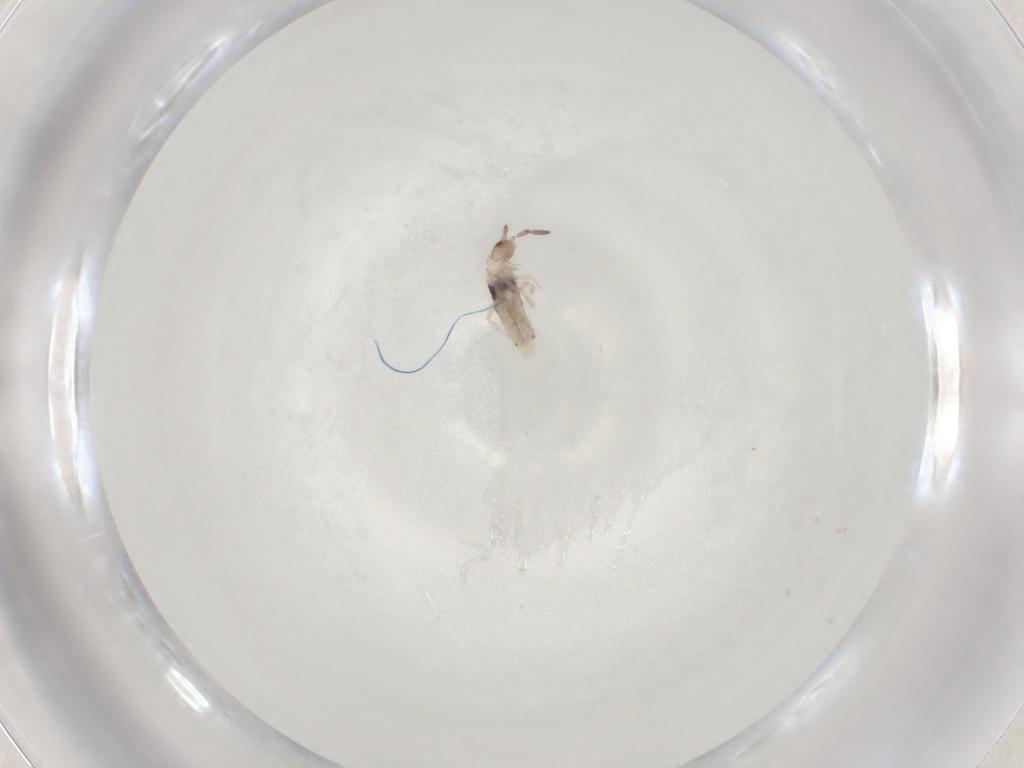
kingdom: Animalia
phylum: Arthropoda
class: Collembola
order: Entomobryomorpha
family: Entomobryidae
